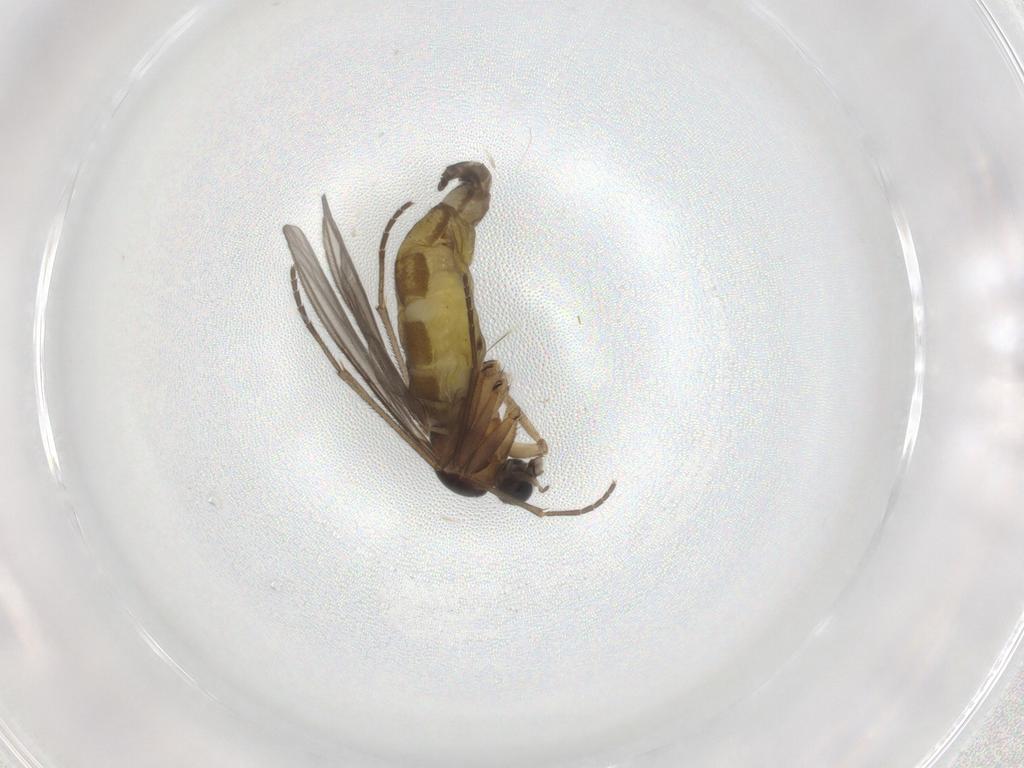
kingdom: Animalia
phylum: Arthropoda
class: Insecta
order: Diptera
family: Sciaridae
